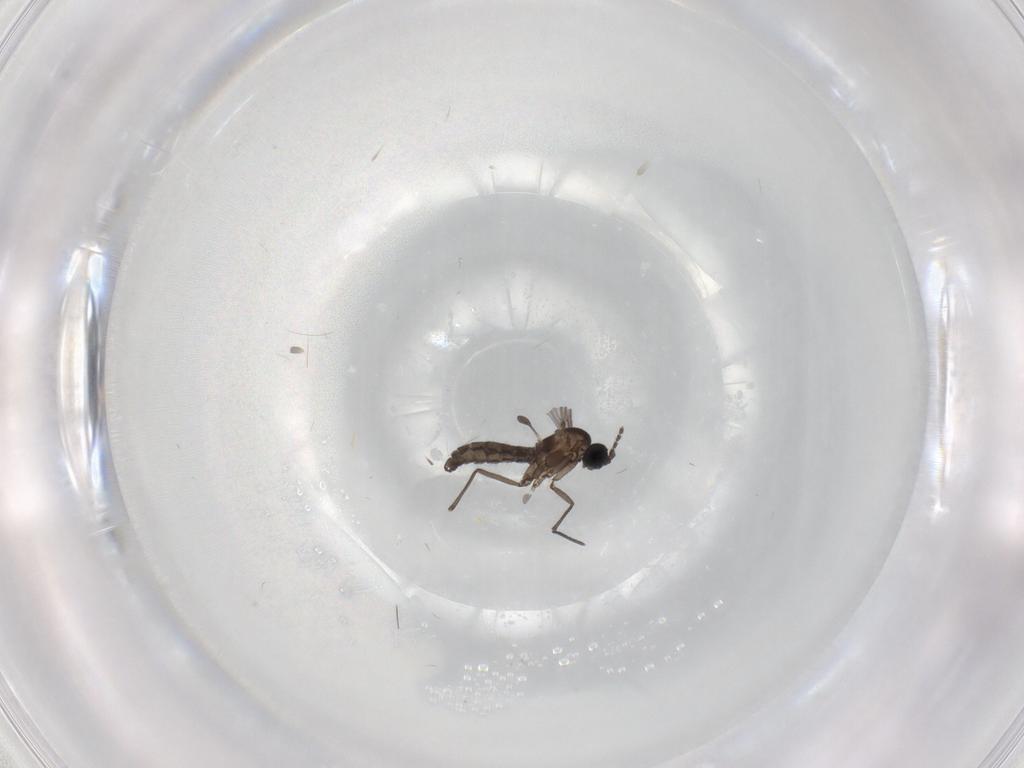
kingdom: Animalia
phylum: Arthropoda
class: Insecta
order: Diptera
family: Limoniidae
